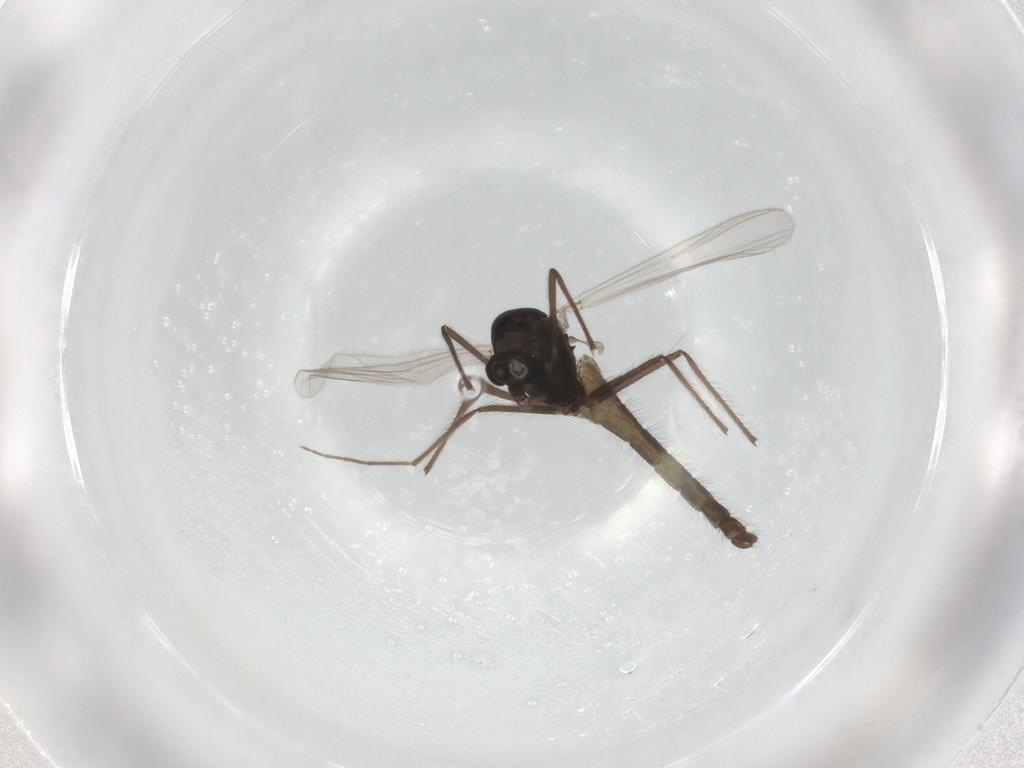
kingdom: Animalia
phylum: Arthropoda
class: Insecta
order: Diptera
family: Chironomidae
